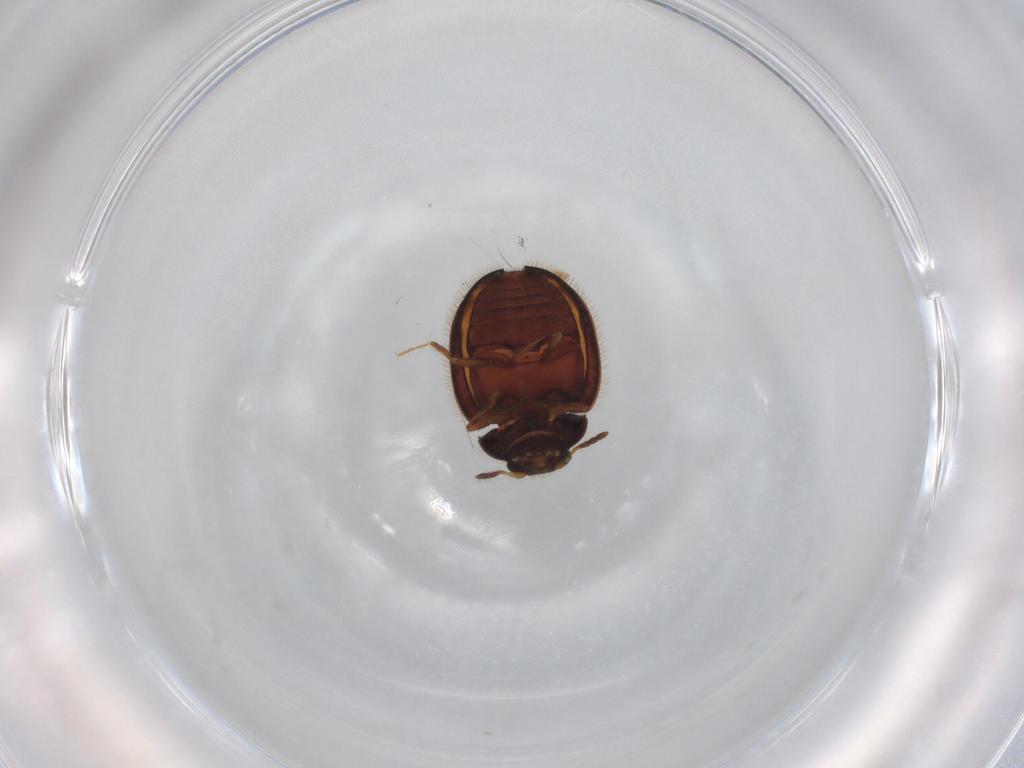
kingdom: Animalia
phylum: Arthropoda
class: Insecta
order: Coleoptera
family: Anamorphidae
